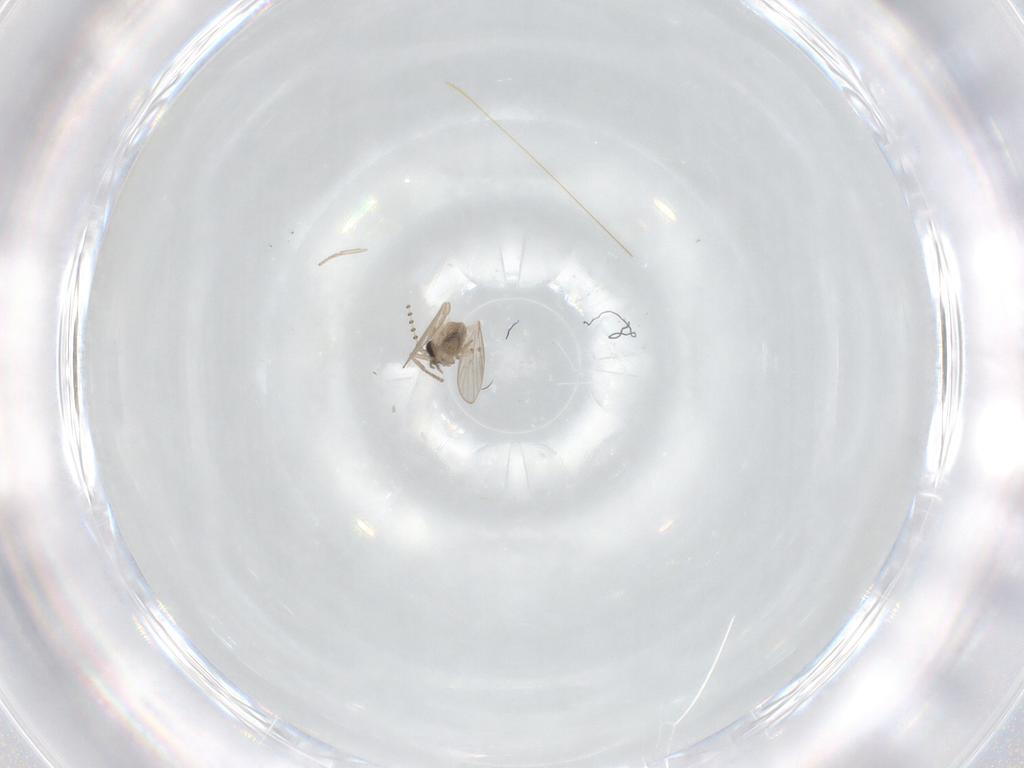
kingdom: Animalia
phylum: Arthropoda
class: Insecta
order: Diptera
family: Psychodidae
